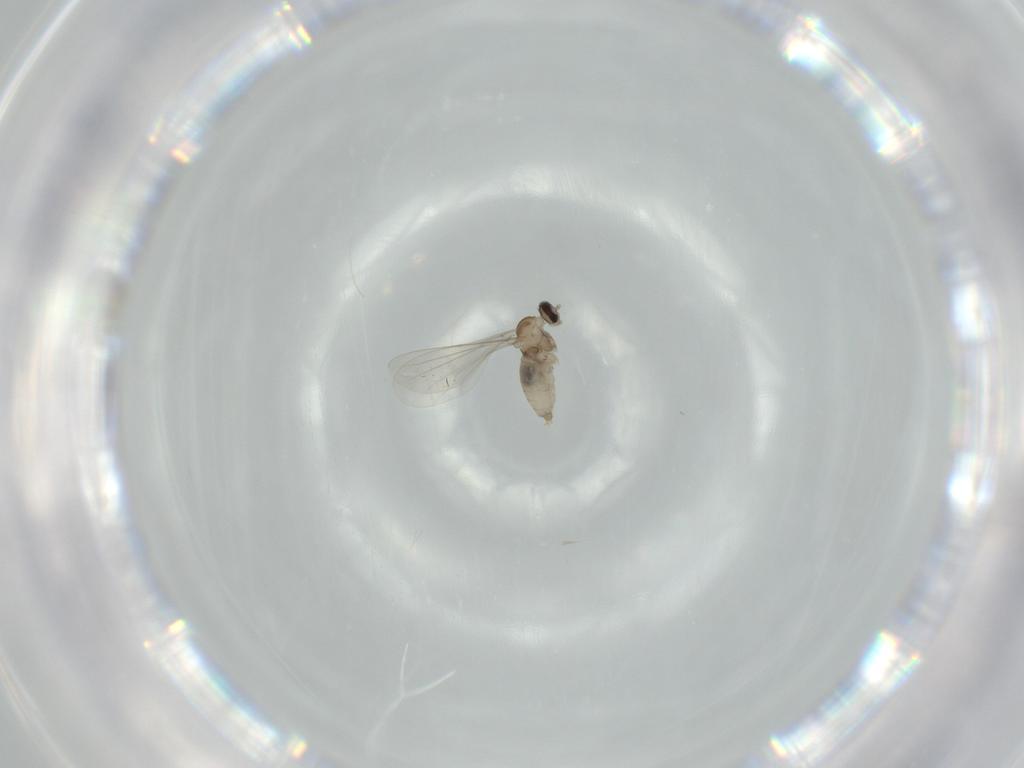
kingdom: Animalia
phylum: Arthropoda
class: Insecta
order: Diptera
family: Cecidomyiidae
